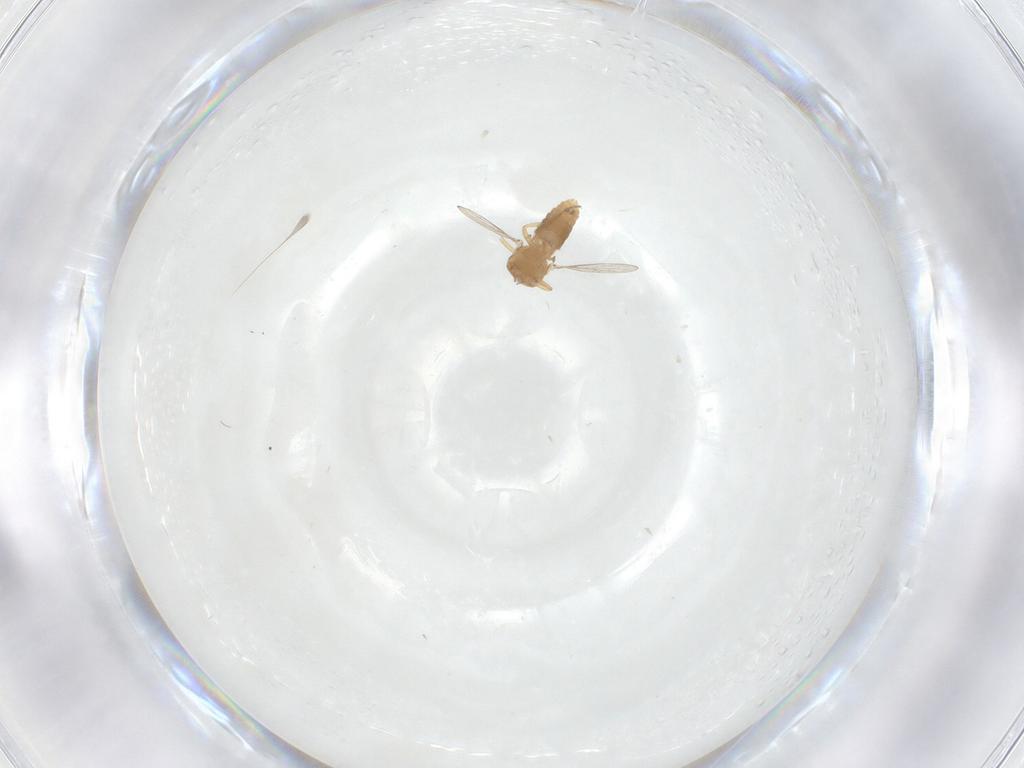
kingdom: Animalia
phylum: Arthropoda
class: Insecta
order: Diptera
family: Ceratopogonidae
